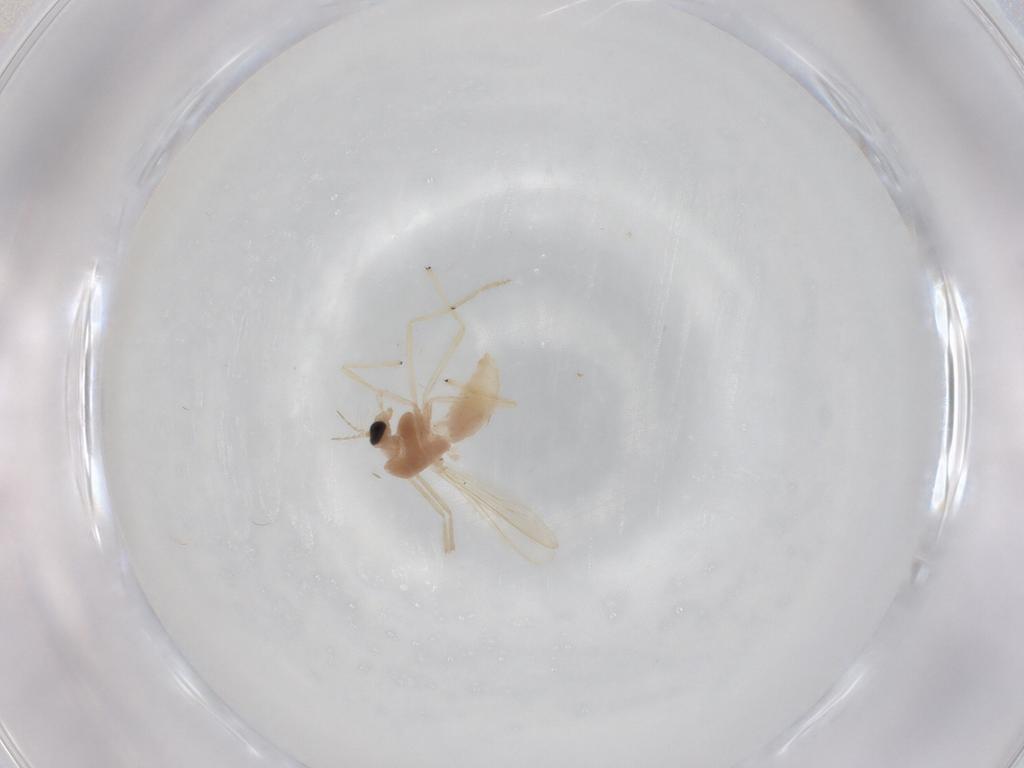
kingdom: Animalia
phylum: Arthropoda
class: Insecta
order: Diptera
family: Chironomidae
